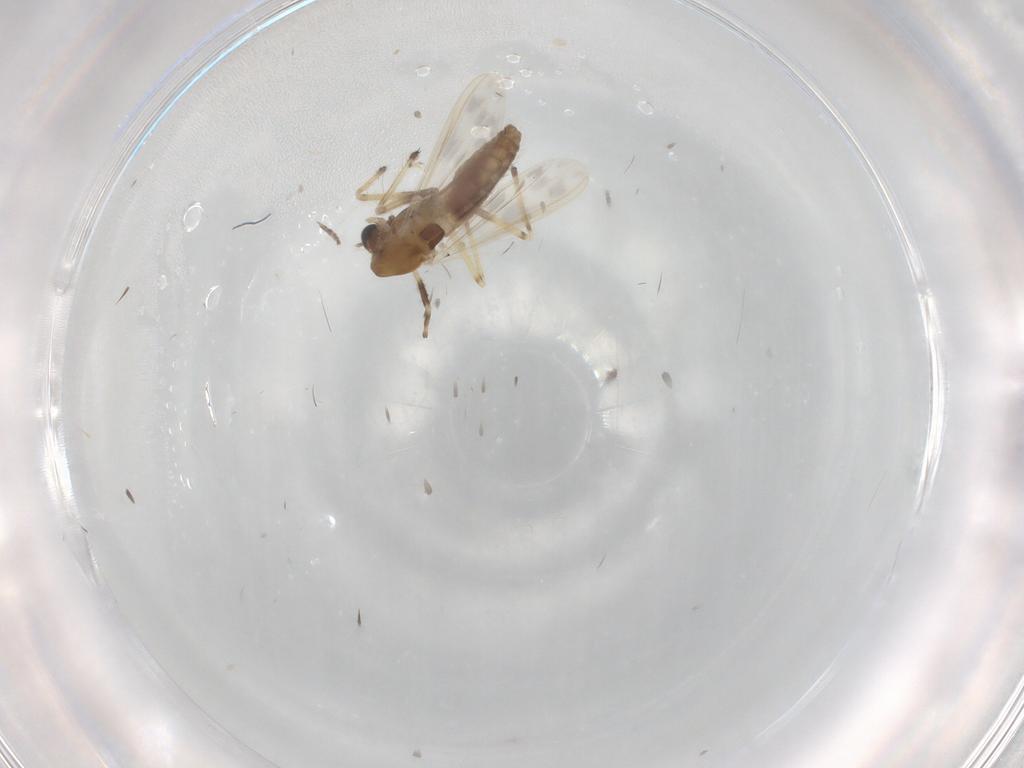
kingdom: Animalia
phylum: Arthropoda
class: Insecta
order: Diptera
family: Chironomidae
